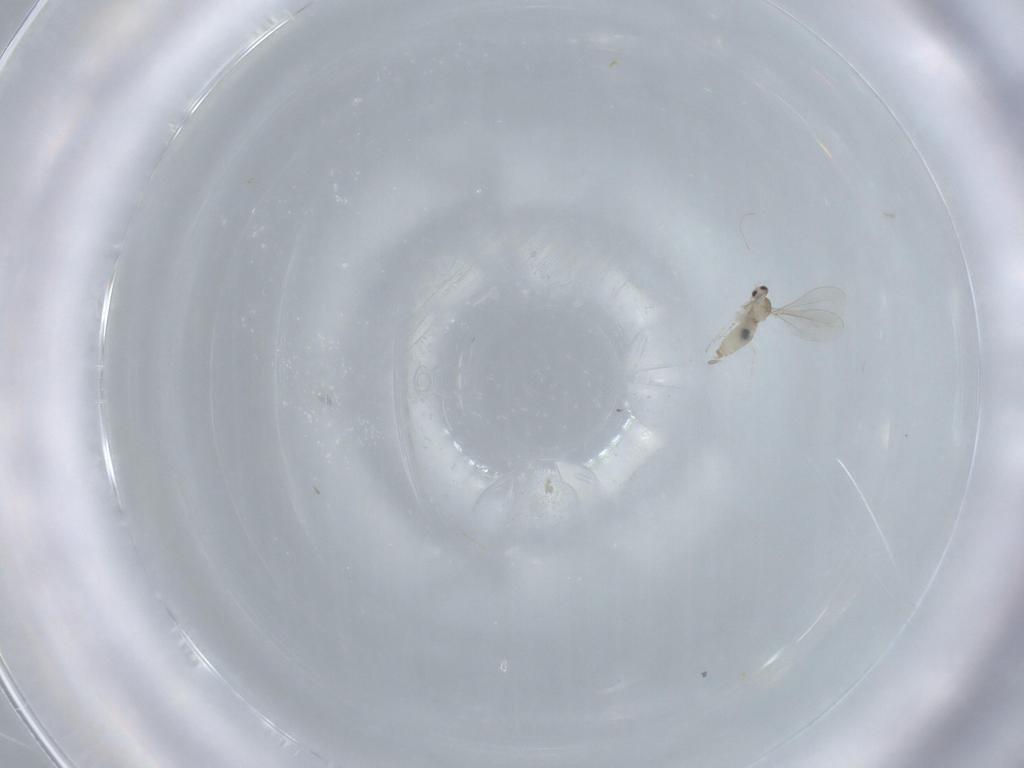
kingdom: Animalia
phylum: Arthropoda
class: Insecta
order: Diptera
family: Cecidomyiidae
